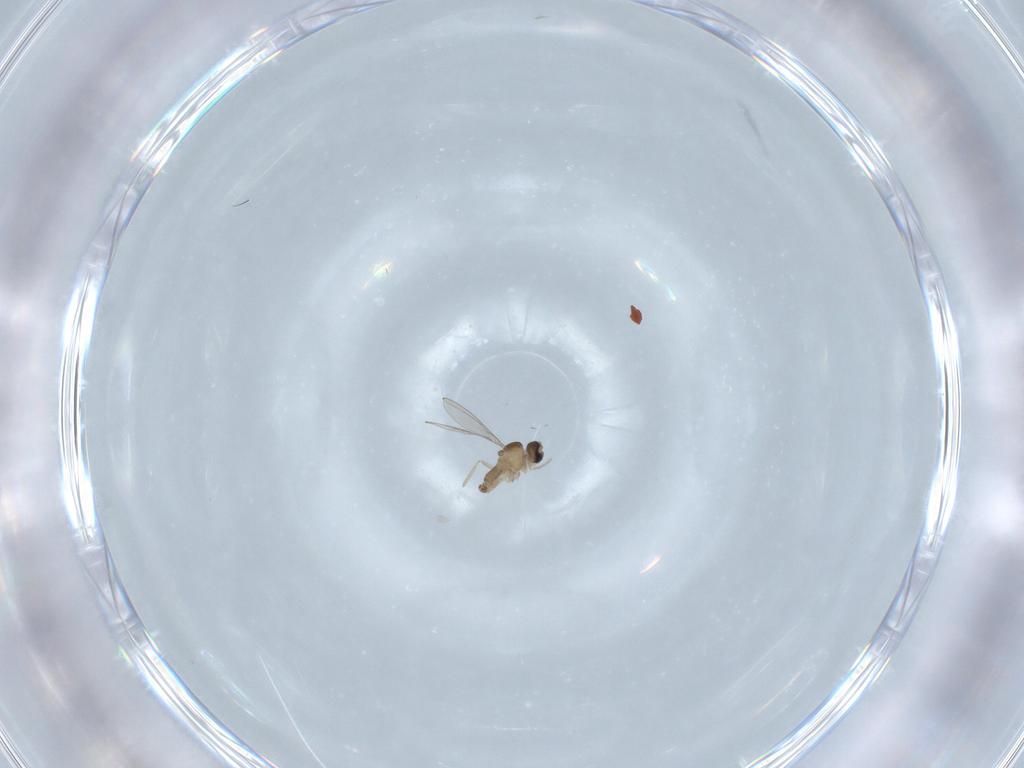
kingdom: Animalia
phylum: Arthropoda
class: Insecta
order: Diptera
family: Cecidomyiidae
